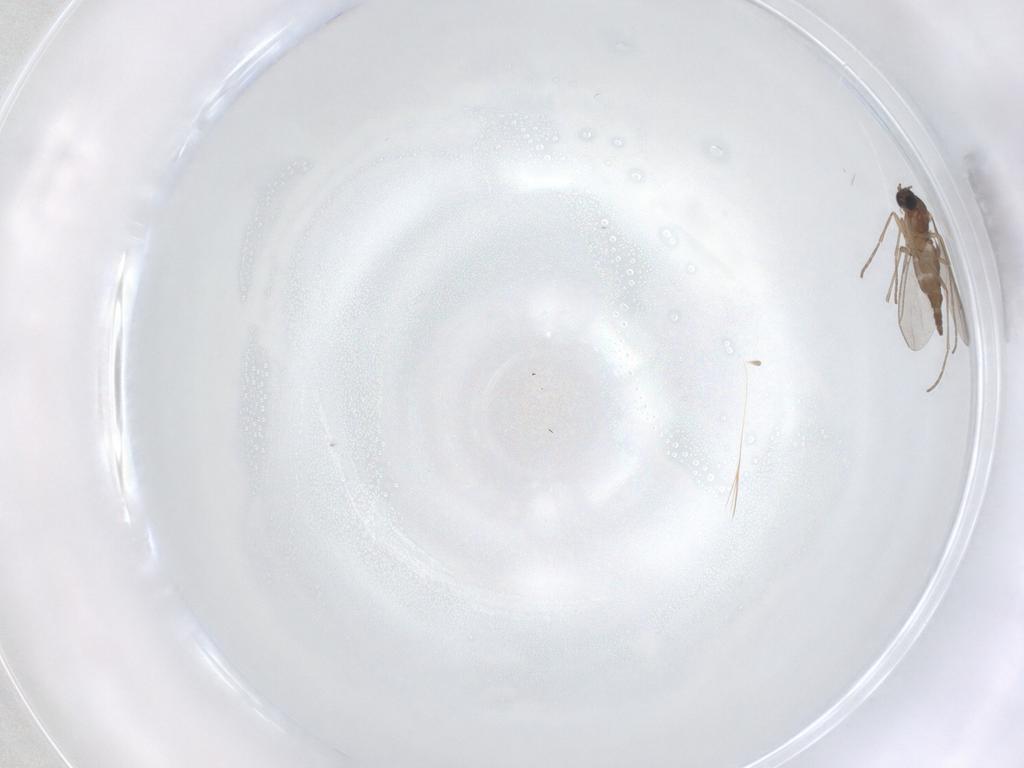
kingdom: Animalia
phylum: Arthropoda
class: Insecta
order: Diptera
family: Sciaridae
